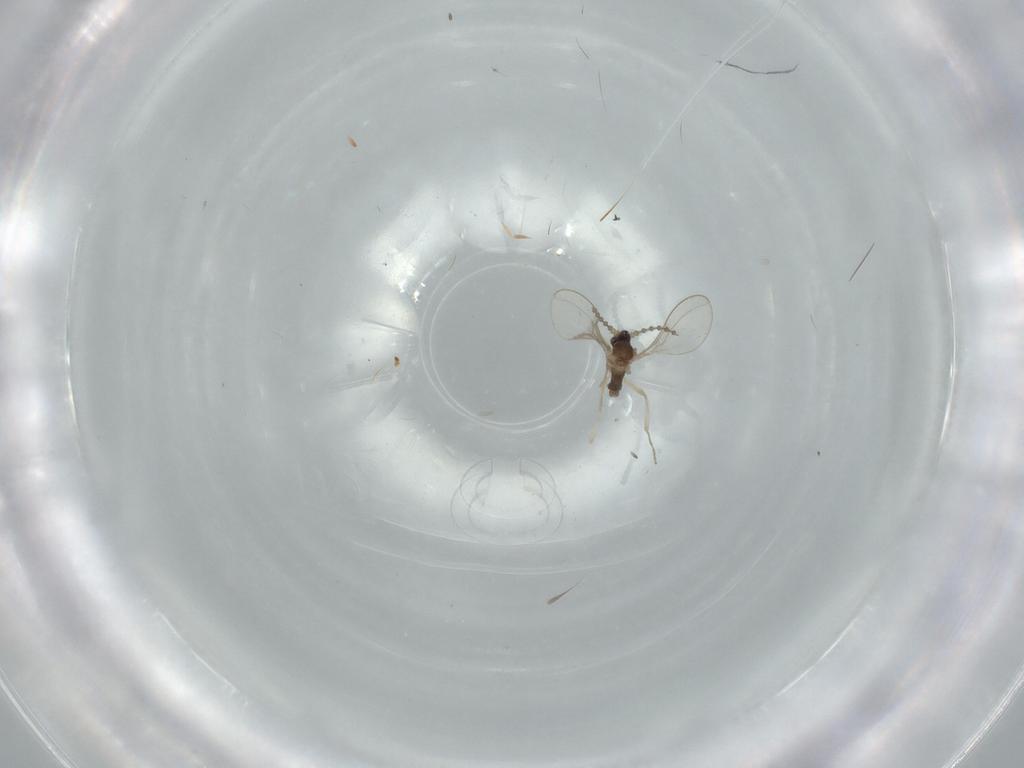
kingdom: Animalia
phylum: Arthropoda
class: Insecta
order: Diptera
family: Cecidomyiidae
